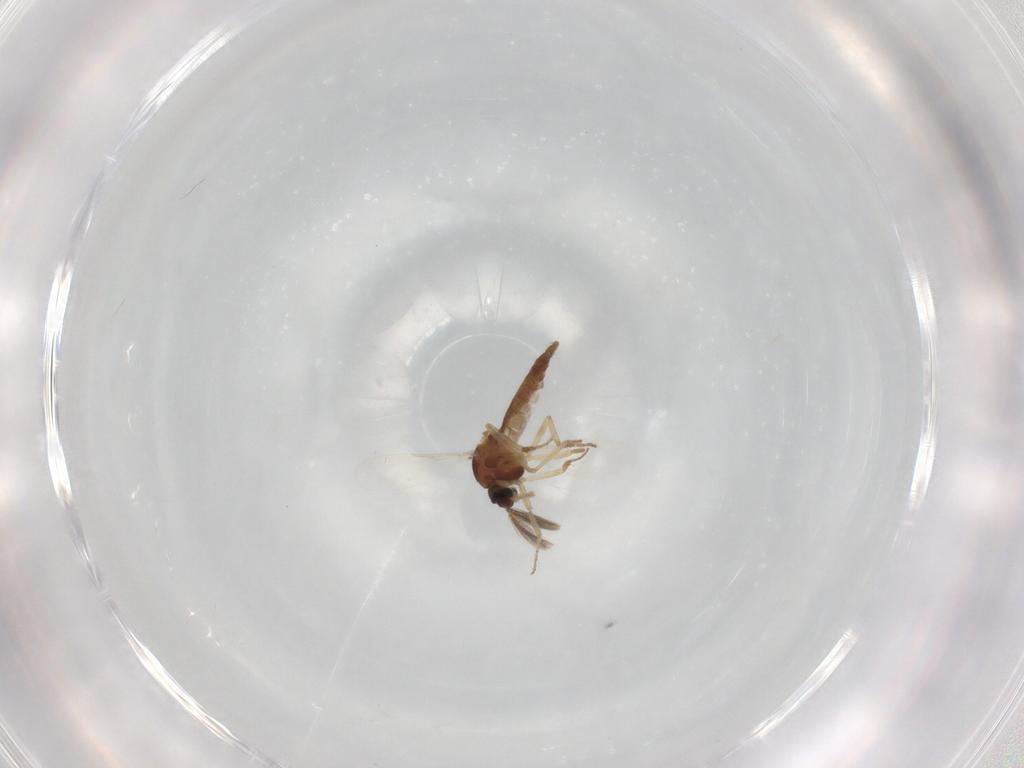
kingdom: Animalia
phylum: Arthropoda
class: Insecta
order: Diptera
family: Ceratopogonidae
